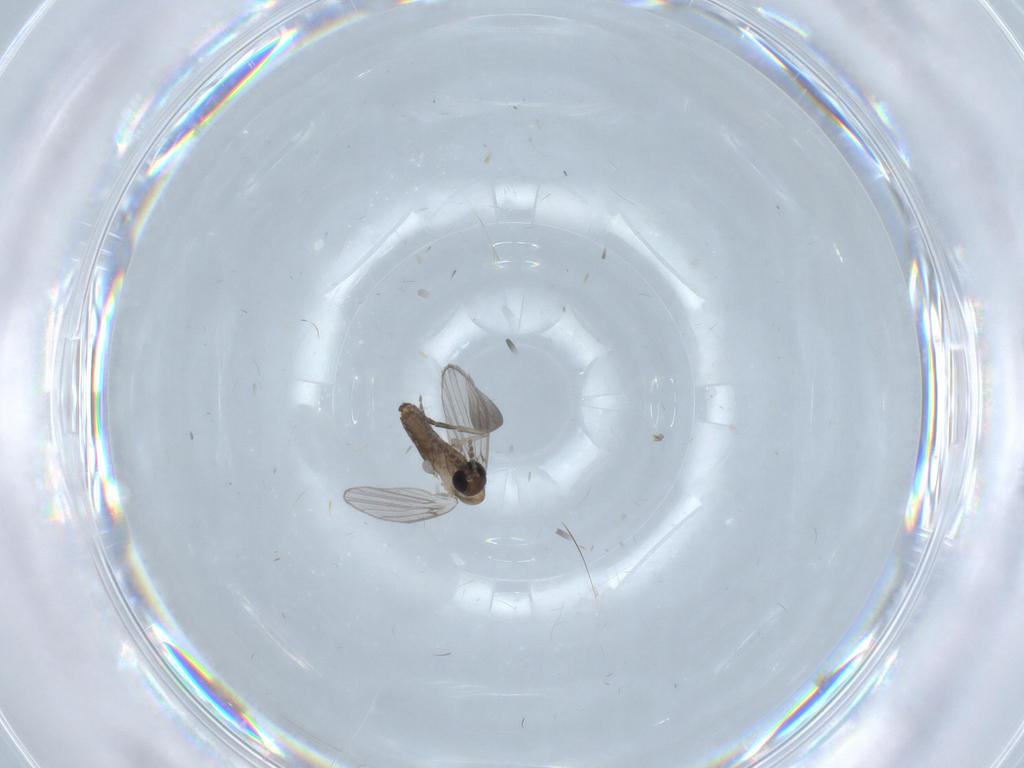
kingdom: Animalia
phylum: Arthropoda
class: Insecta
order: Diptera
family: Cecidomyiidae
